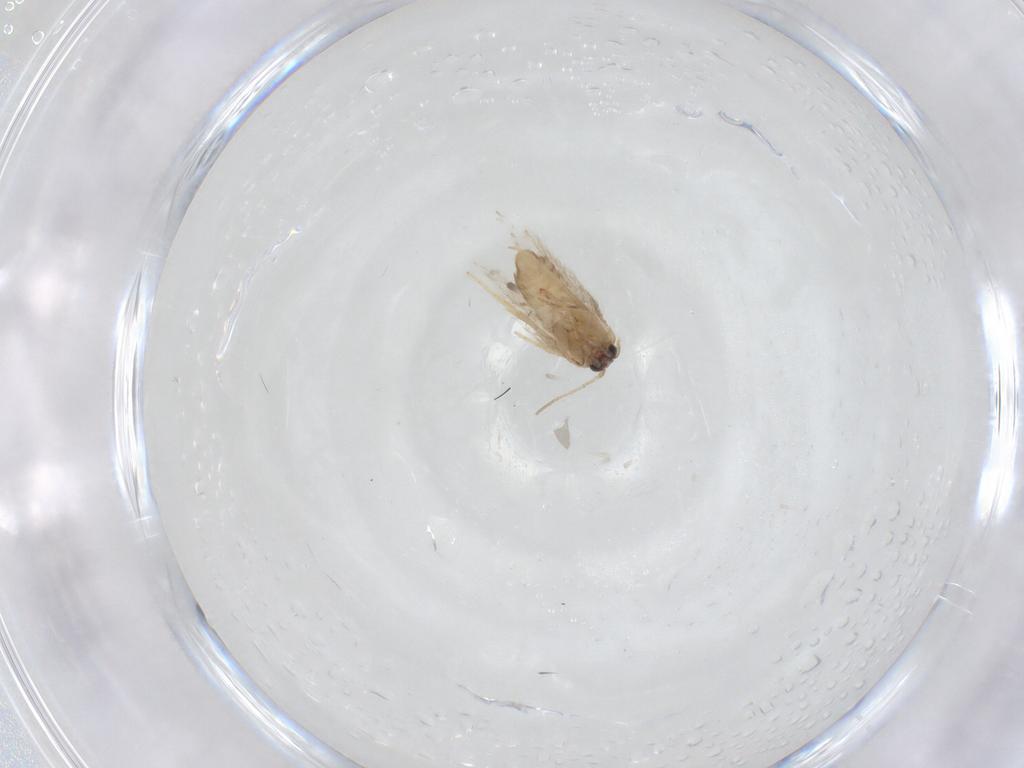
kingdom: Animalia
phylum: Arthropoda
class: Insecta
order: Lepidoptera
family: Nepticulidae
